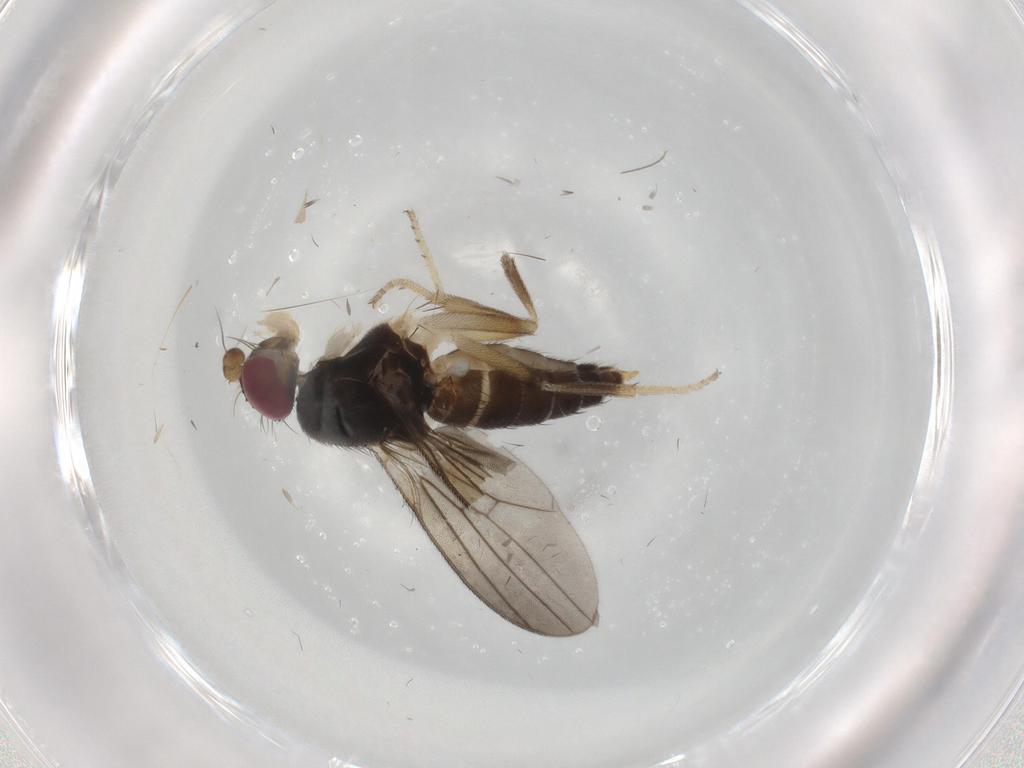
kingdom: Animalia
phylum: Arthropoda
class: Insecta
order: Diptera
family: Clusiidae
